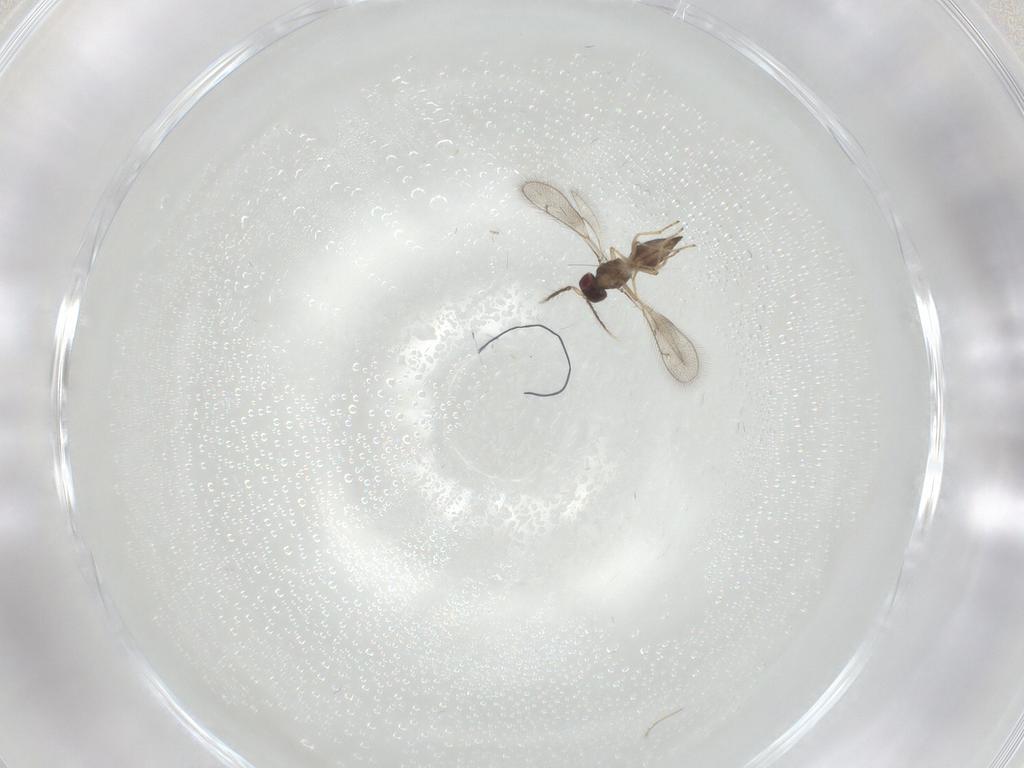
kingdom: Animalia
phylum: Arthropoda
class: Insecta
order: Hymenoptera
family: Eulophidae
